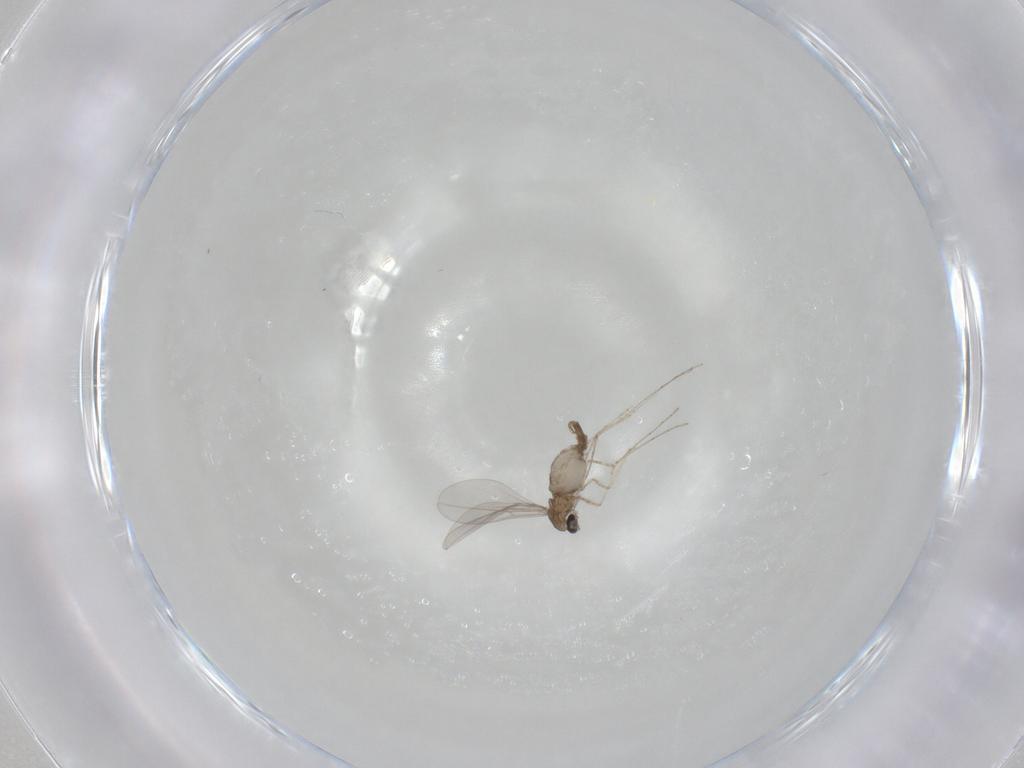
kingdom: Animalia
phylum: Arthropoda
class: Insecta
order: Diptera
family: Cecidomyiidae
